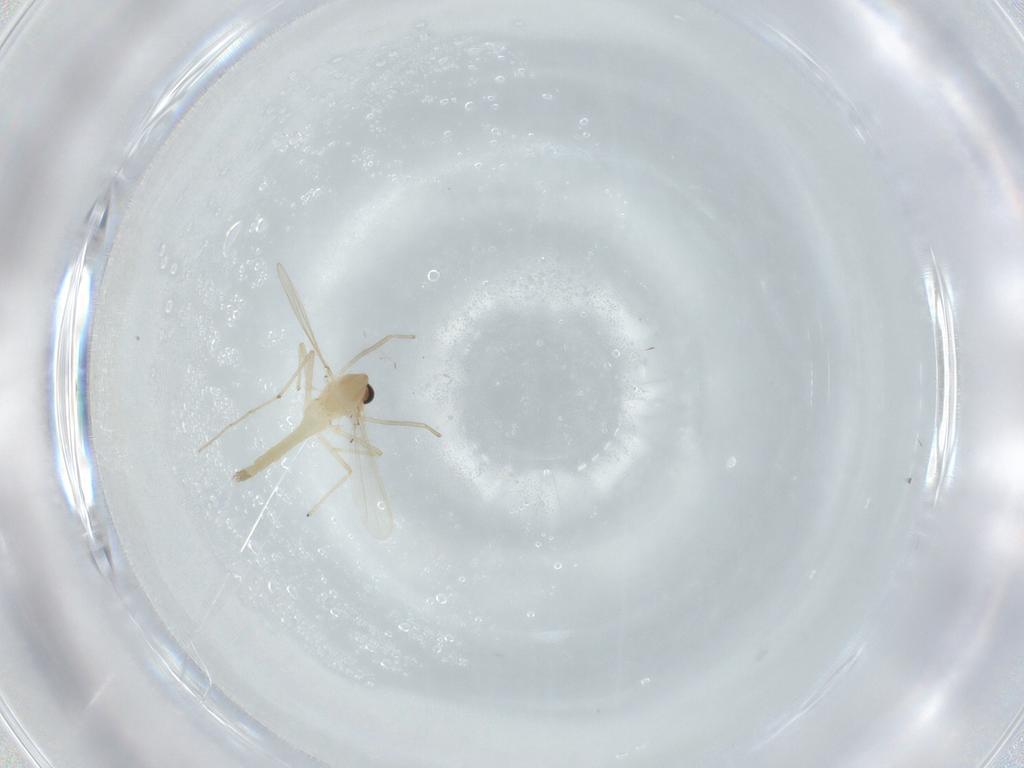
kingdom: Animalia
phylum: Arthropoda
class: Insecta
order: Diptera
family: Chironomidae
